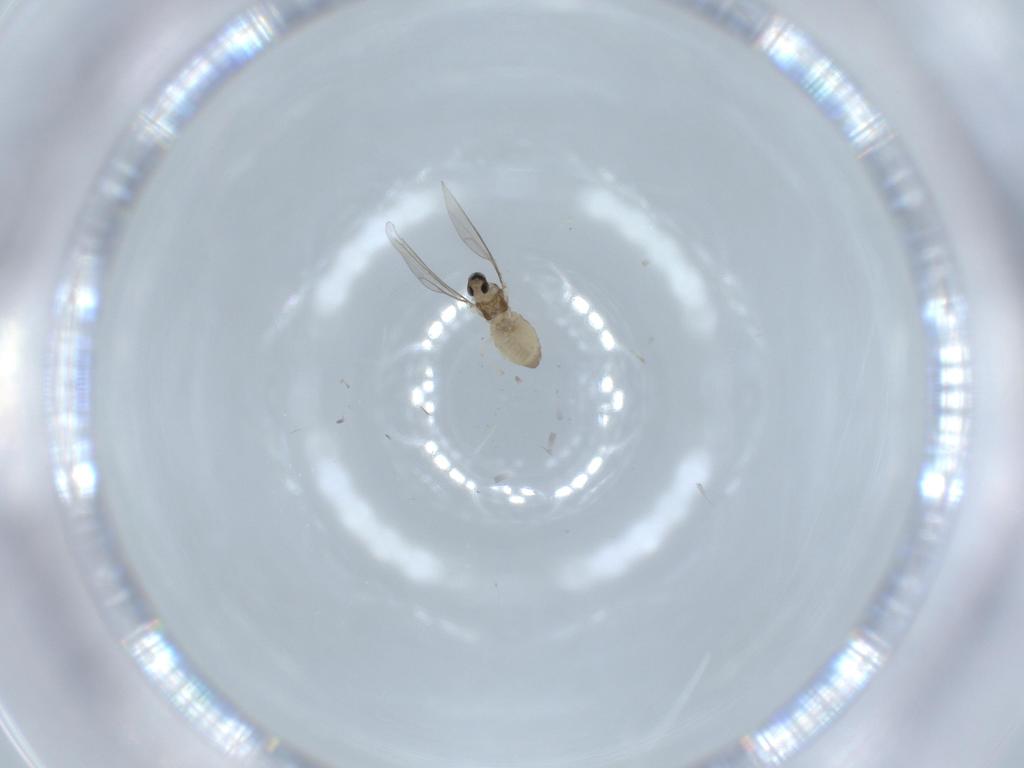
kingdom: Animalia
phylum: Arthropoda
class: Insecta
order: Diptera
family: Cecidomyiidae
